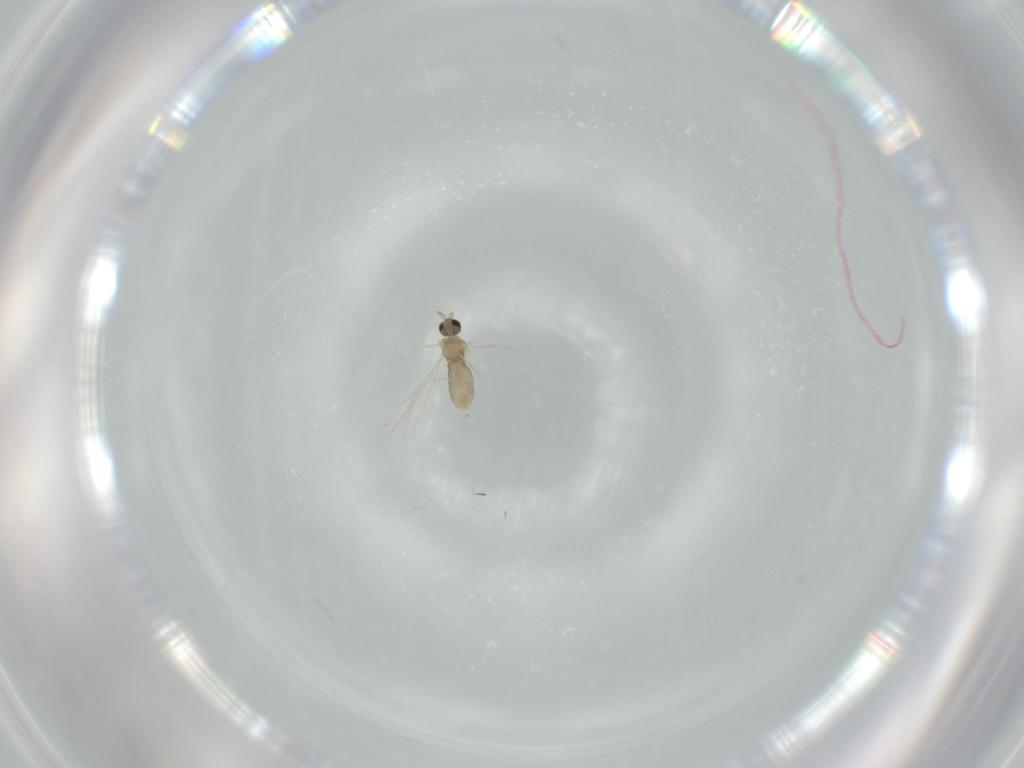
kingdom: Animalia
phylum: Arthropoda
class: Insecta
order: Diptera
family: Cecidomyiidae
